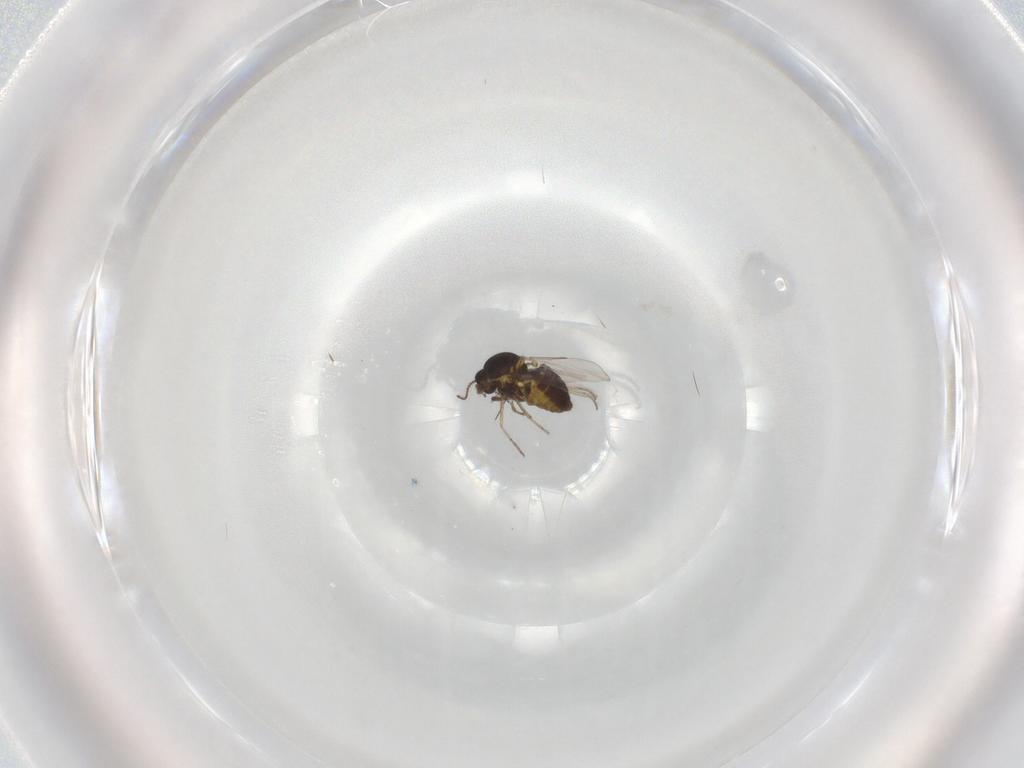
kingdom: Animalia
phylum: Arthropoda
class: Insecta
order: Diptera
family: Ceratopogonidae
